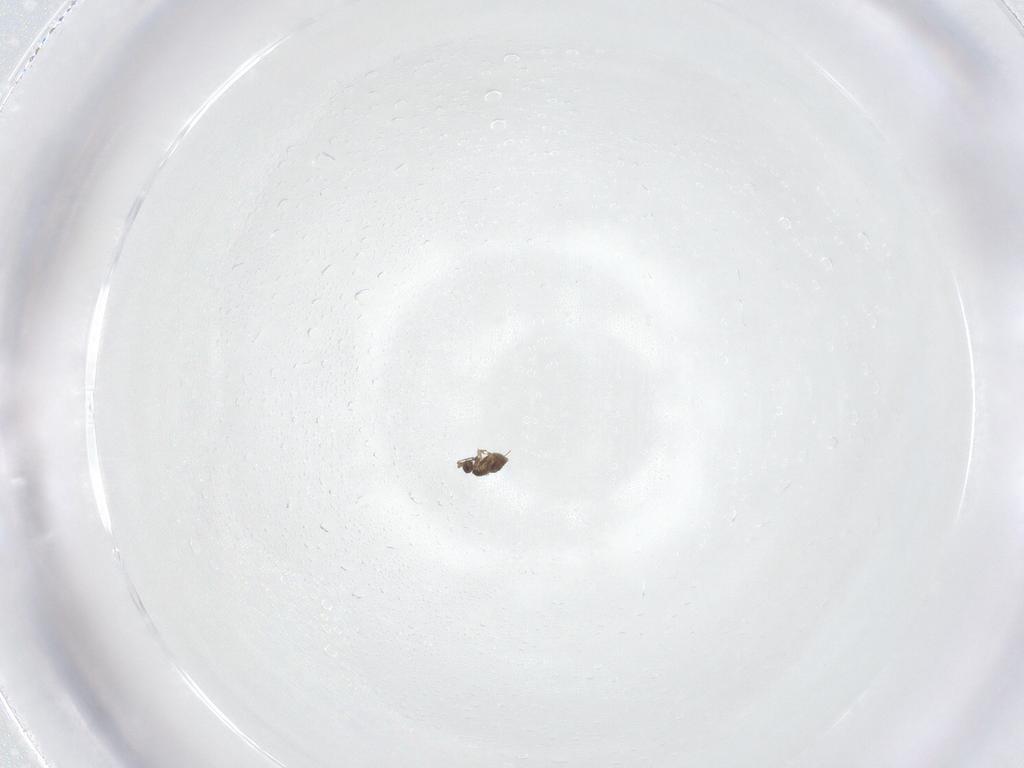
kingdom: Animalia
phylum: Arthropoda
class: Insecta
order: Hymenoptera
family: Mymaridae
